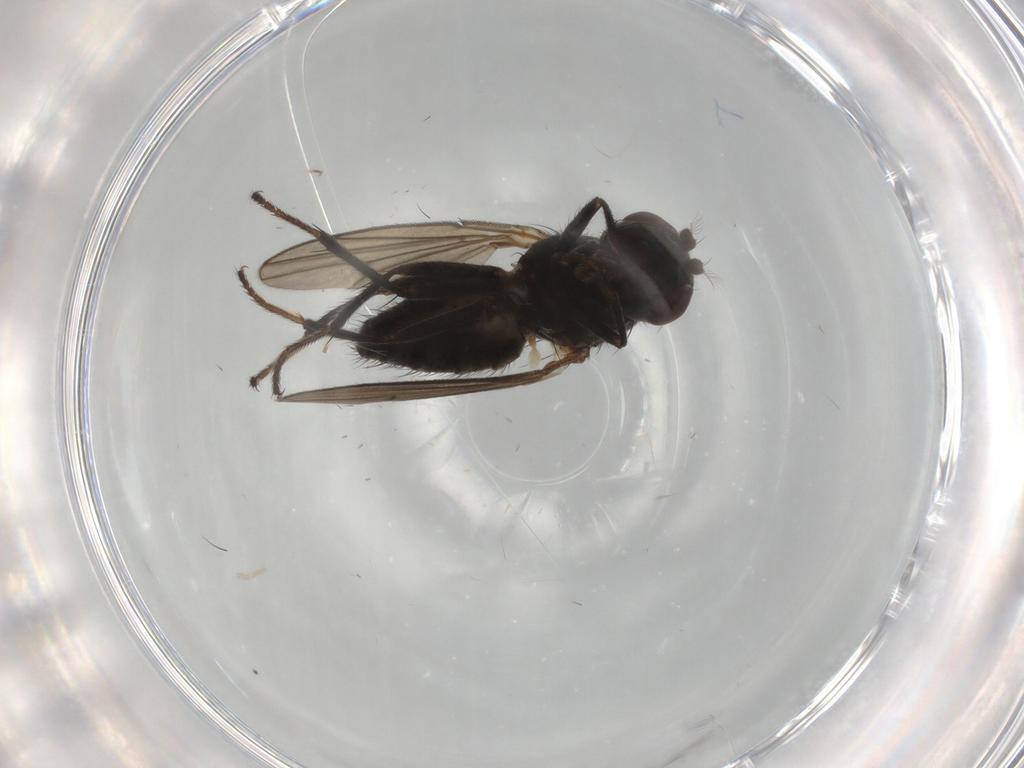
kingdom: Animalia
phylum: Arthropoda
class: Insecta
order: Diptera
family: Ephydridae
